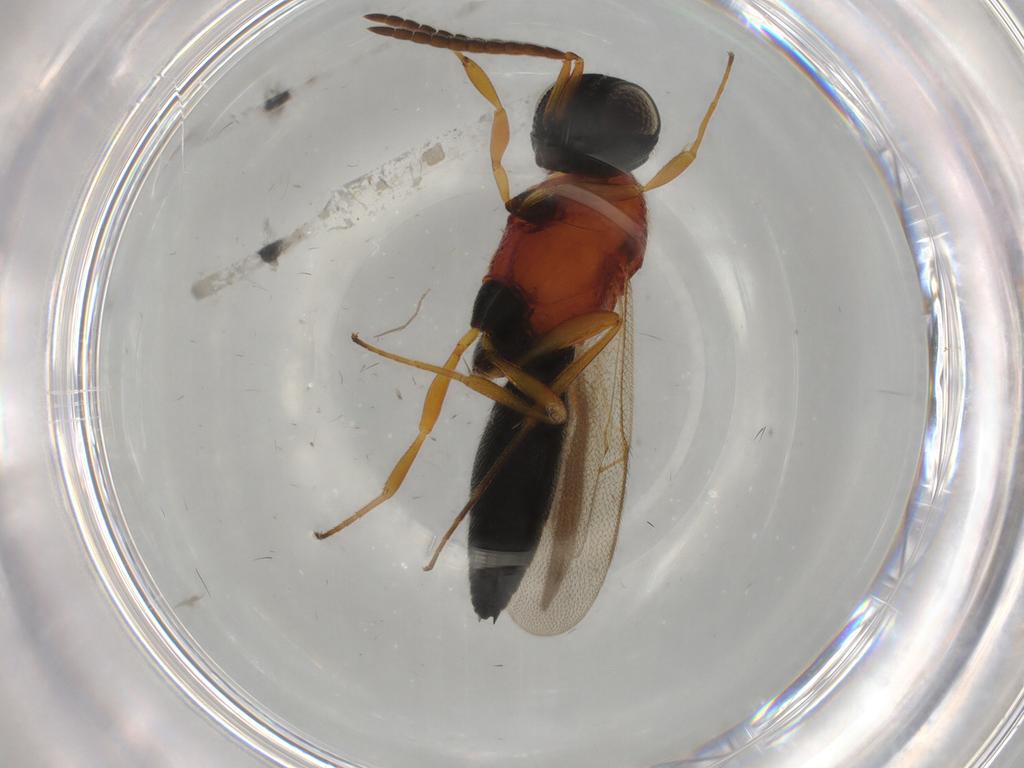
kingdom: Animalia
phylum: Arthropoda
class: Insecta
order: Hymenoptera
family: Scelionidae
